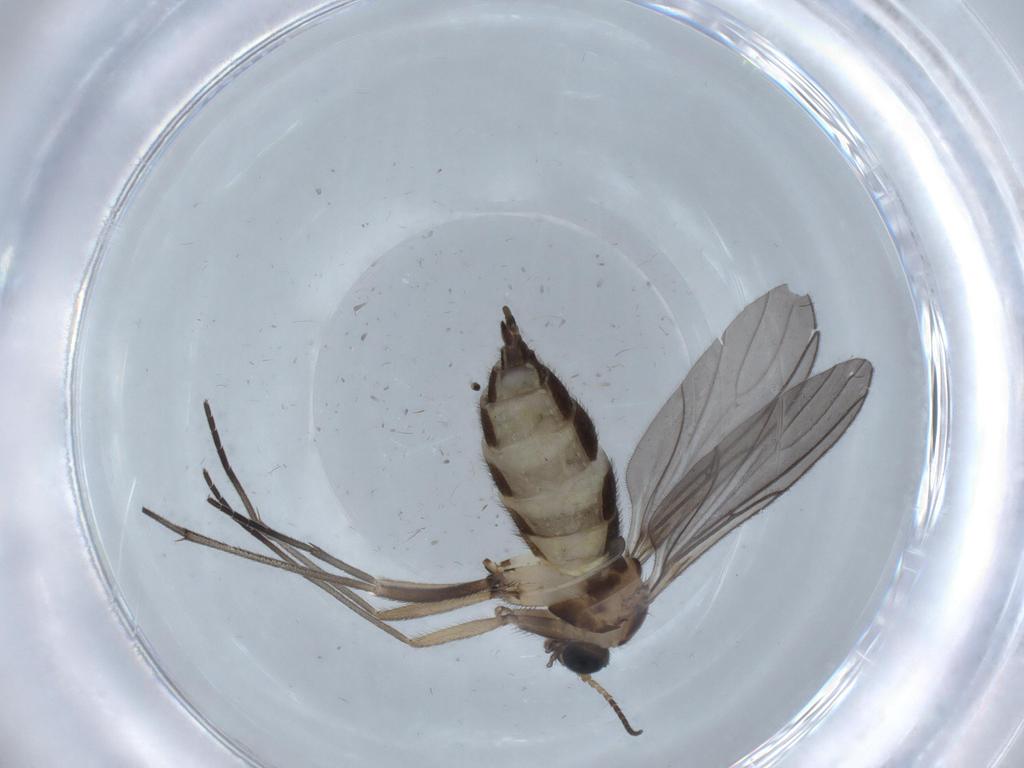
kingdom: Animalia
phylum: Arthropoda
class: Insecta
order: Diptera
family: Sciaridae
